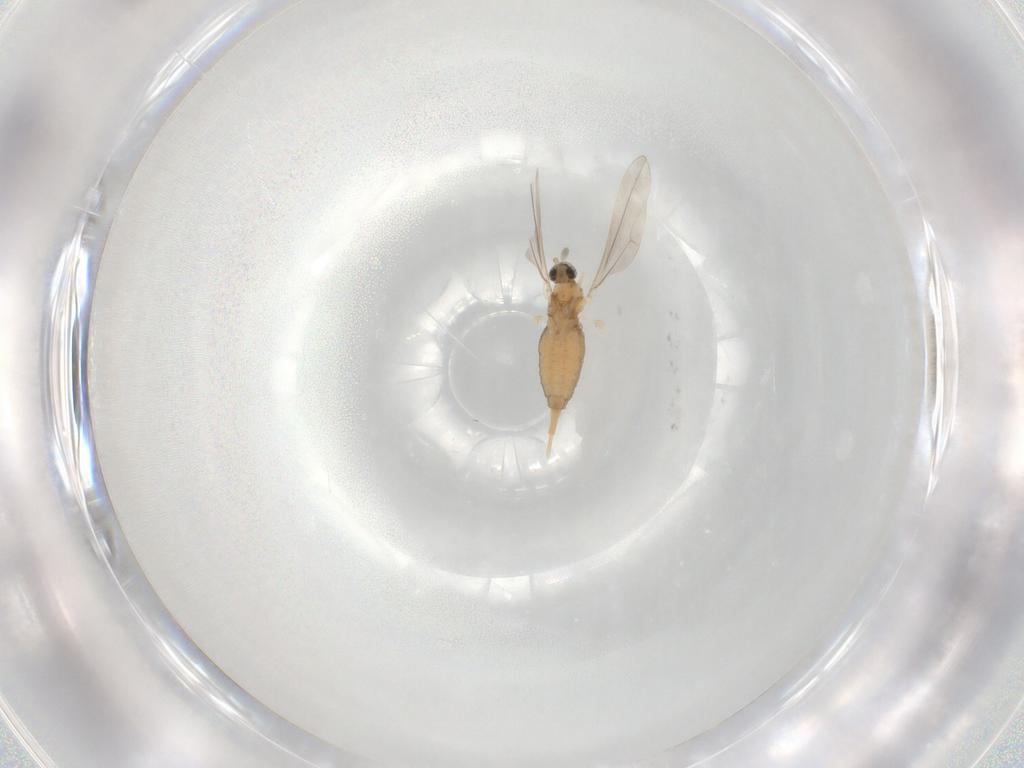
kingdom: Animalia
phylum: Arthropoda
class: Insecta
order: Diptera
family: Cecidomyiidae
